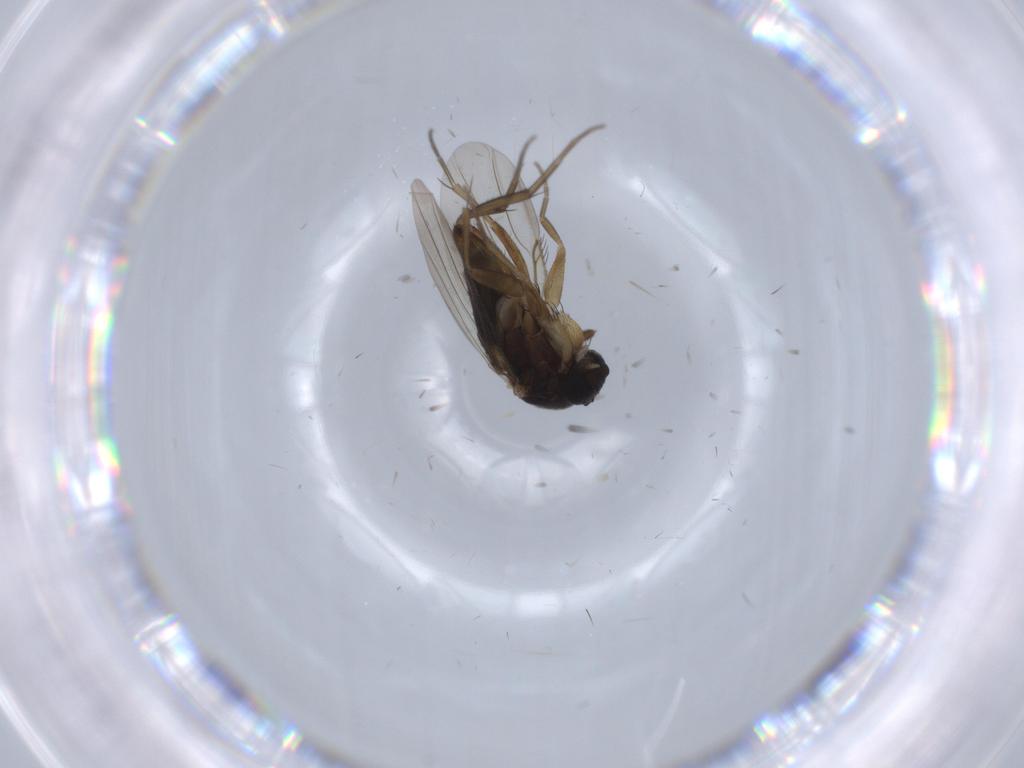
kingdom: Animalia
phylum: Arthropoda
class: Insecta
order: Diptera
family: Phoridae
